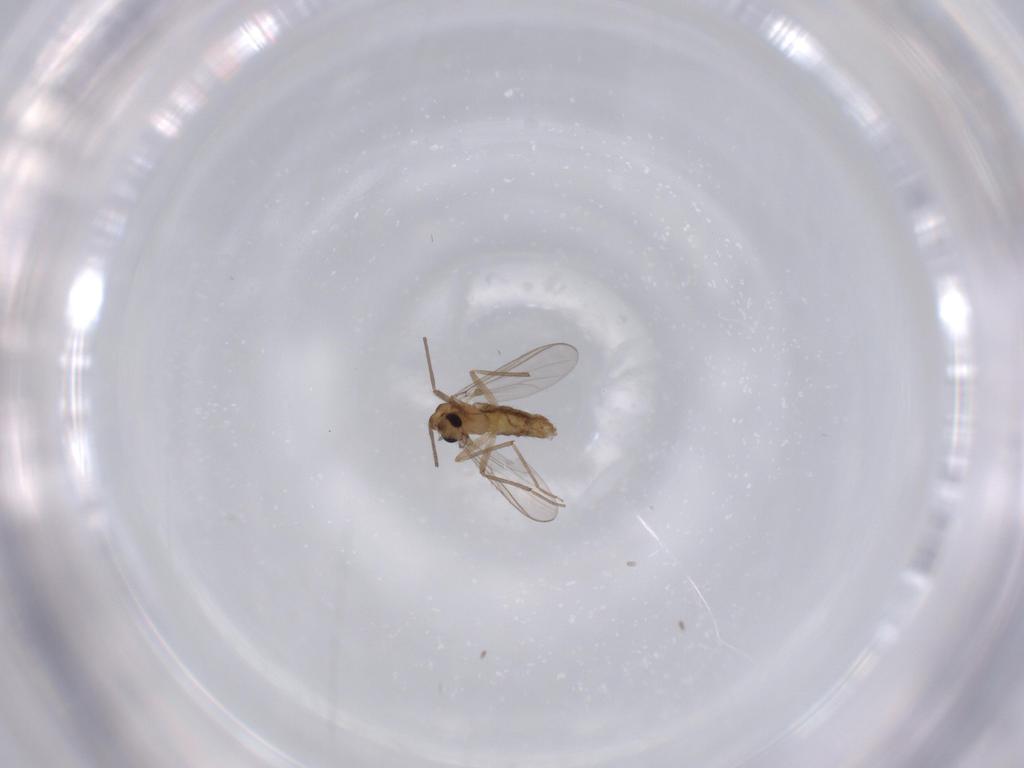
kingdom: Animalia
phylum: Arthropoda
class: Insecta
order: Diptera
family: Chironomidae
